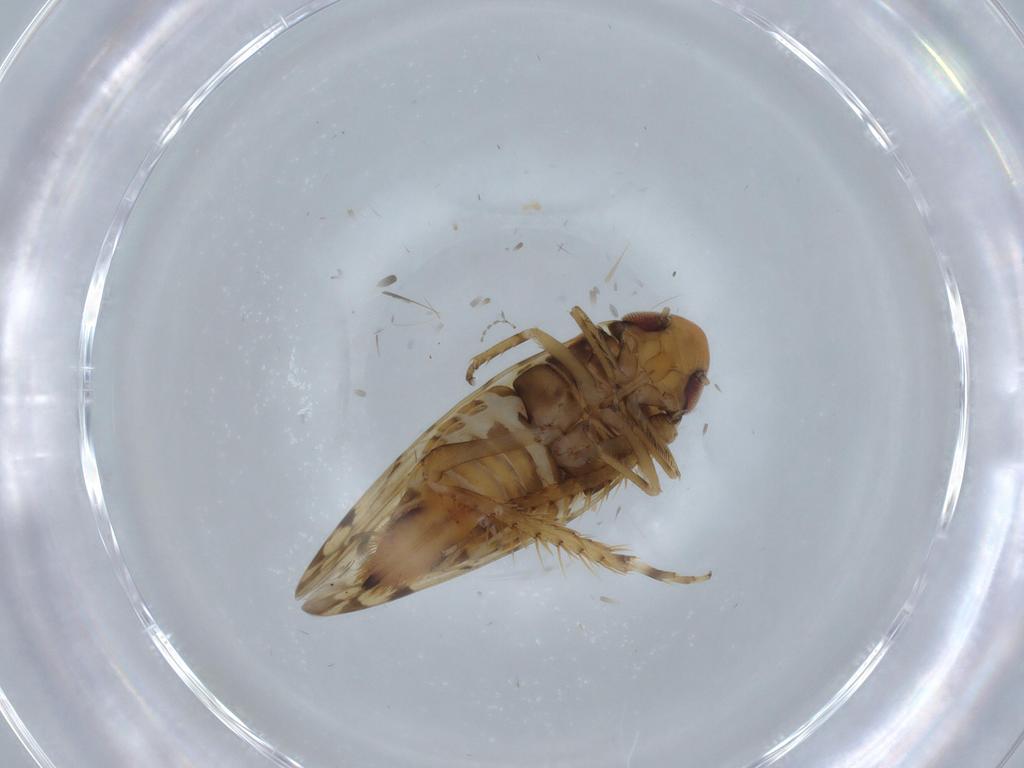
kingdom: Animalia
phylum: Arthropoda
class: Insecta
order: Hemiptera
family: Cicadellidae
